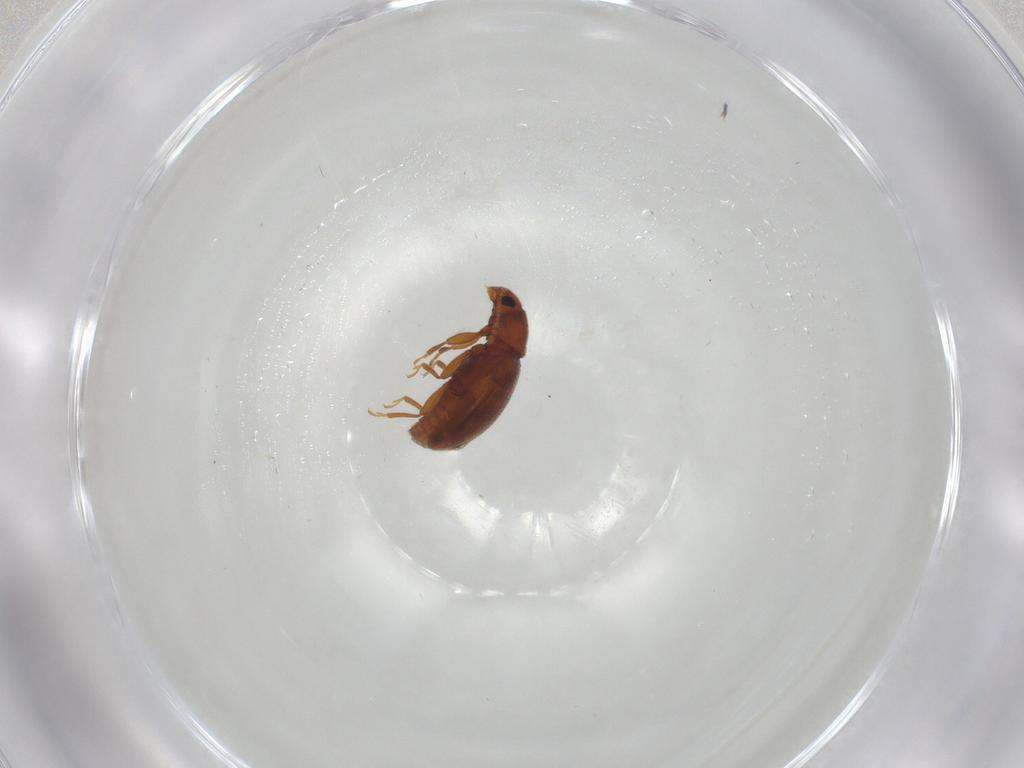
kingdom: Animalia
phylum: Arthropoda
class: Insecta
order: Coleoptera
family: Latridiidae
